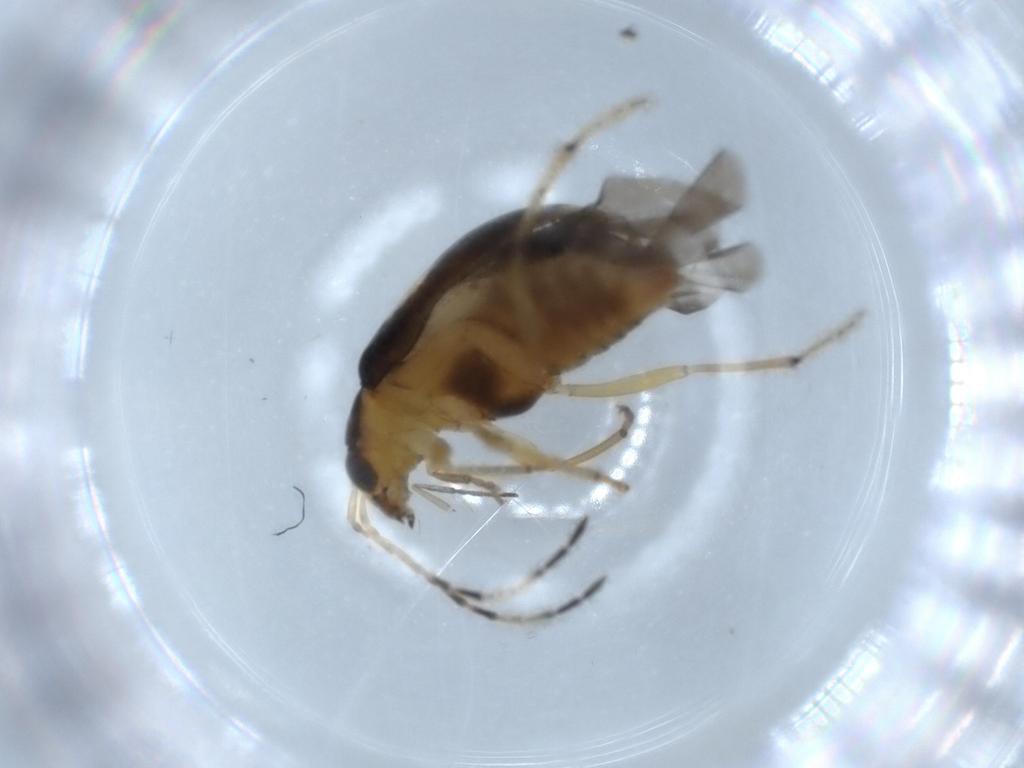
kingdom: Animalia
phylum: Arthropoda
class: Insecta
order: Coleoptera
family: Chrysomelidae
